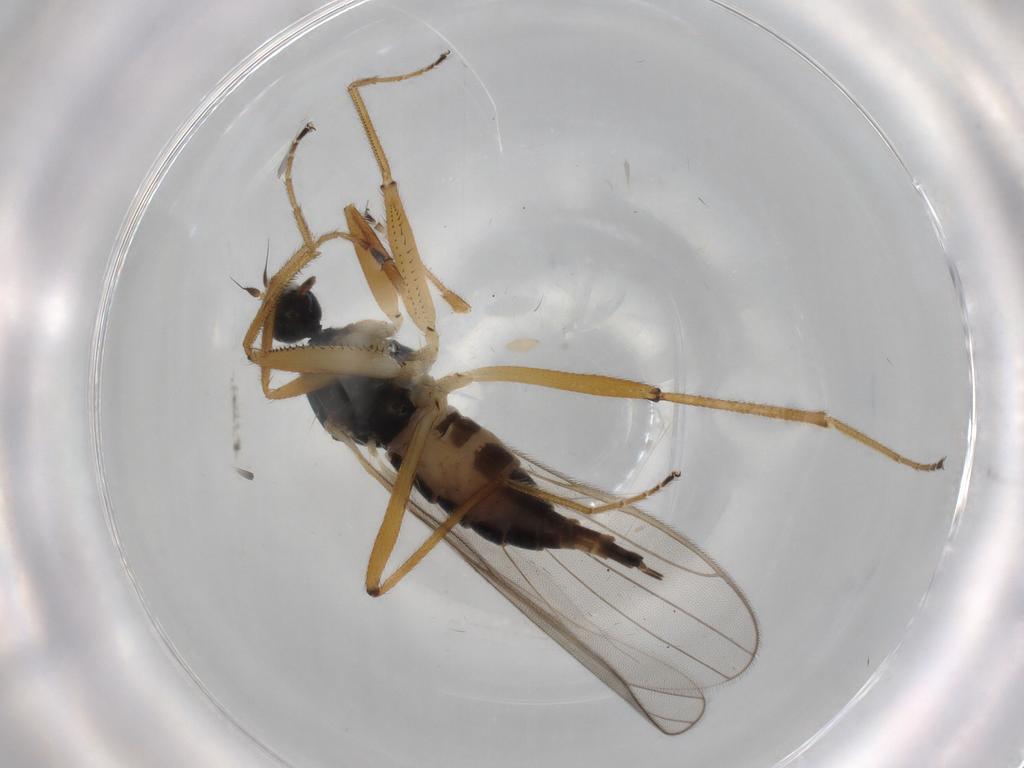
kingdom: Animalia
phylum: Arthropoda
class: Insecta
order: Diptera
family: Hybotidae
